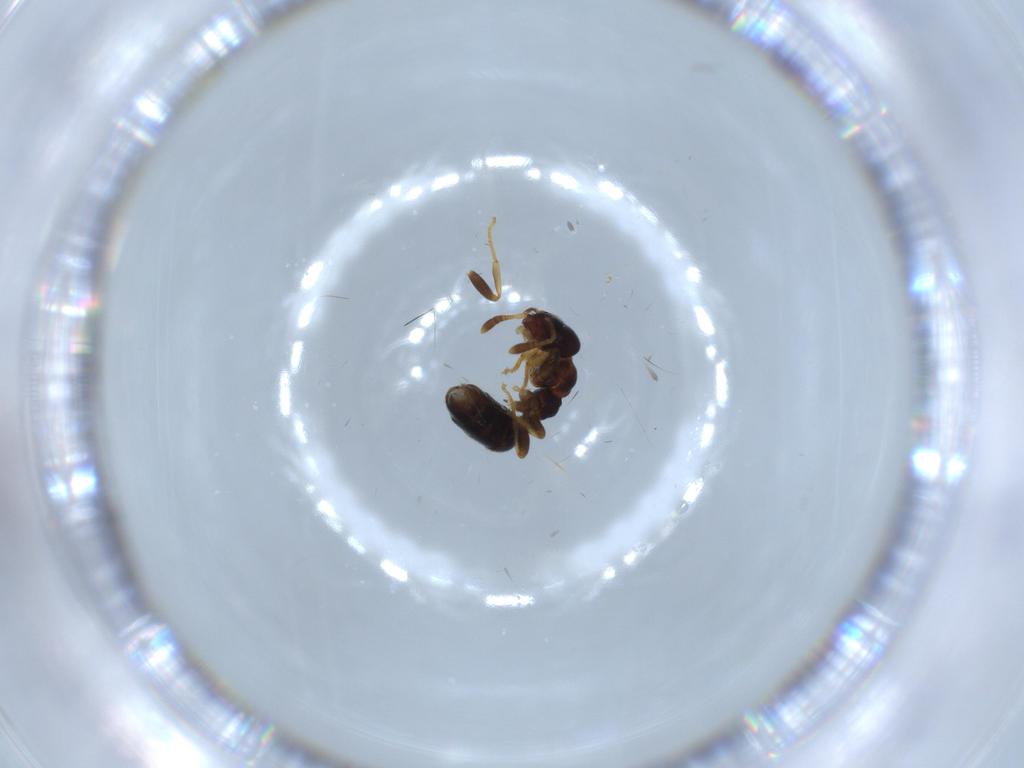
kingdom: Animalia
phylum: Arthropoda
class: Insecta
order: Hymenoptera
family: Formicidae
